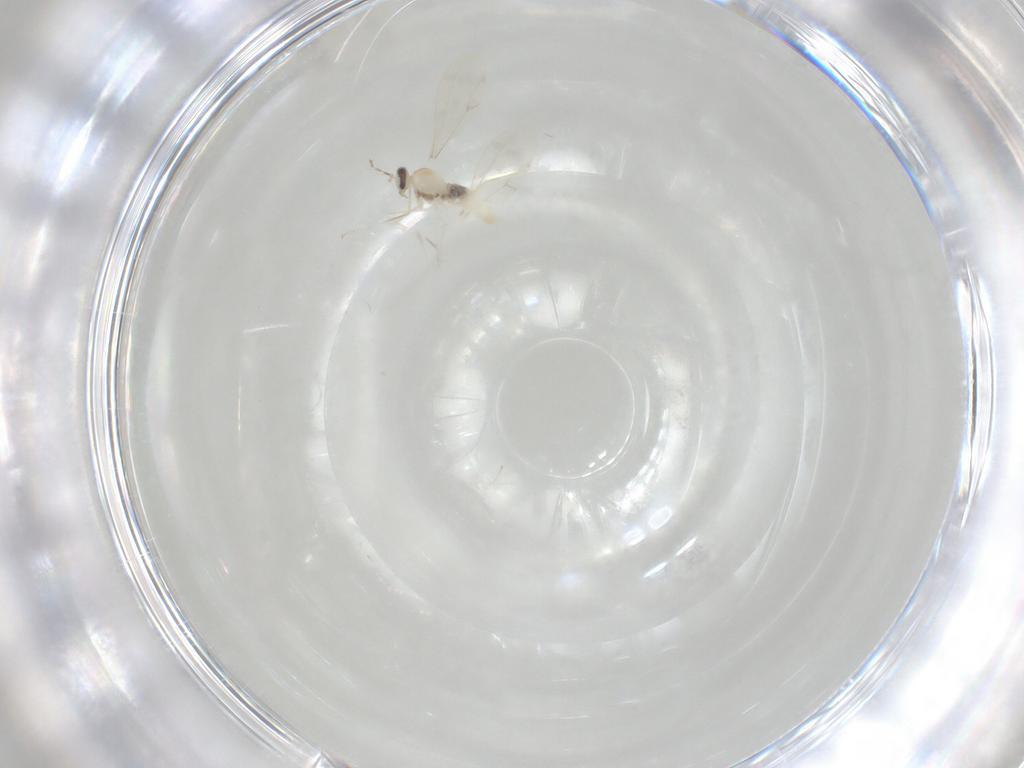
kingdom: Animalia
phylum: Arthropoda
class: Insecta
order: Diptera
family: Cecidomyiidae
